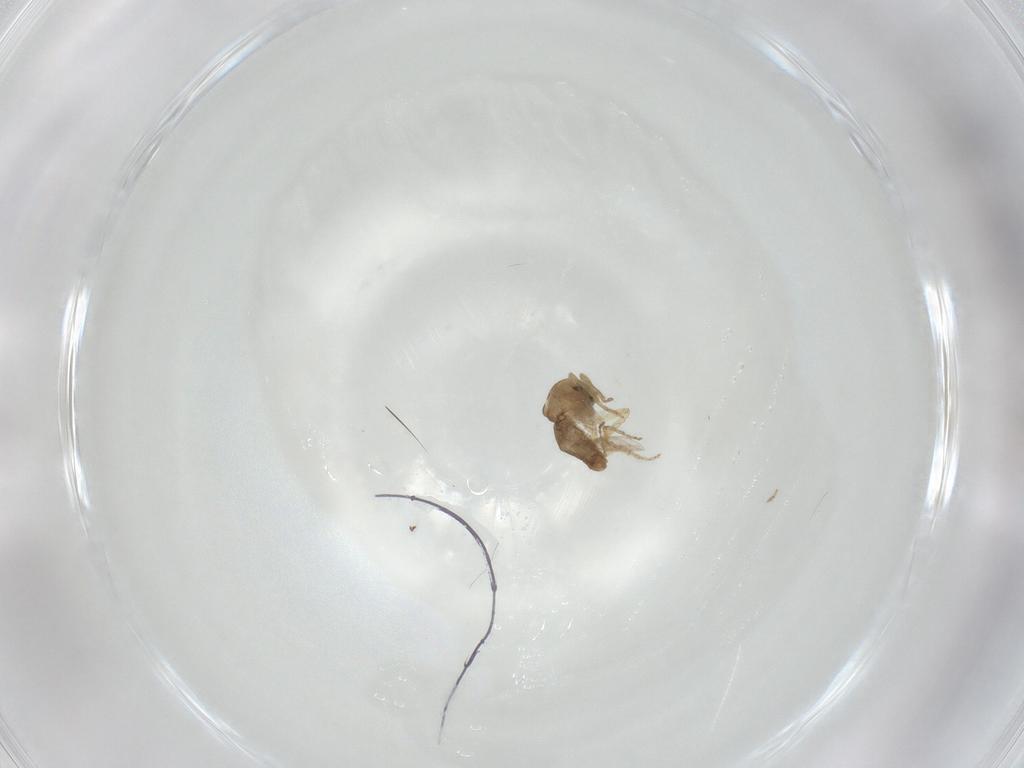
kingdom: Animalia
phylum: Arthropoda
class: Insecta
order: Diptera
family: Ceratopogonidae
